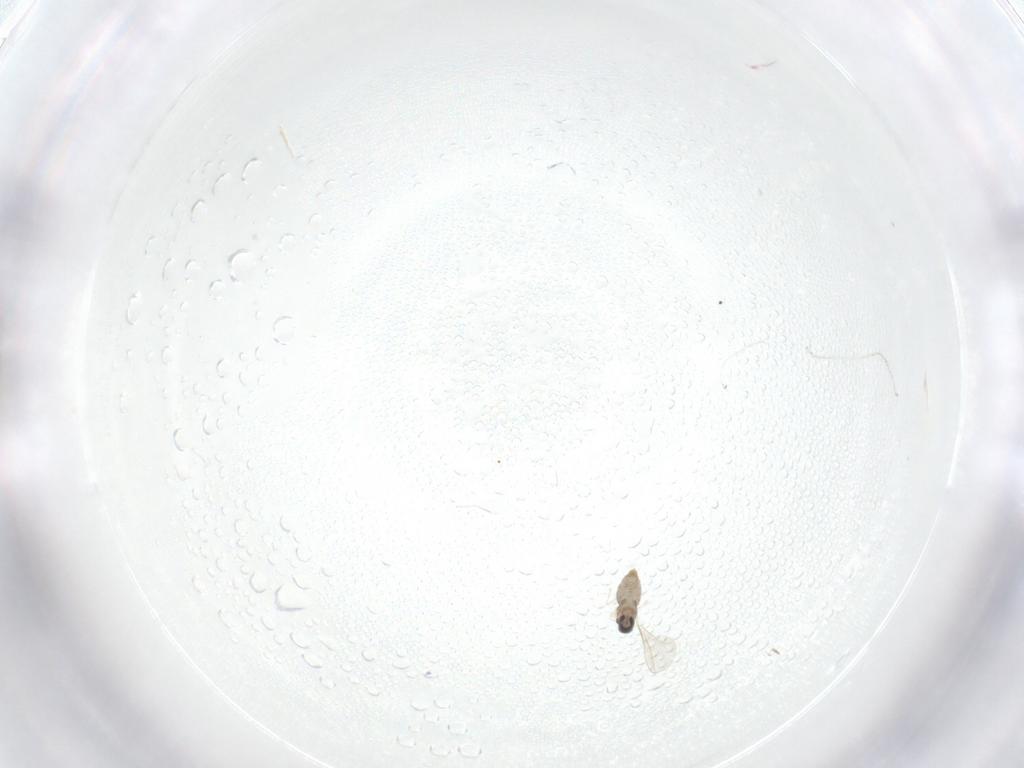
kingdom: Animalia
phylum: Arthropoda
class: Insecta
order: Diptera
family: Cecidomyiidae
